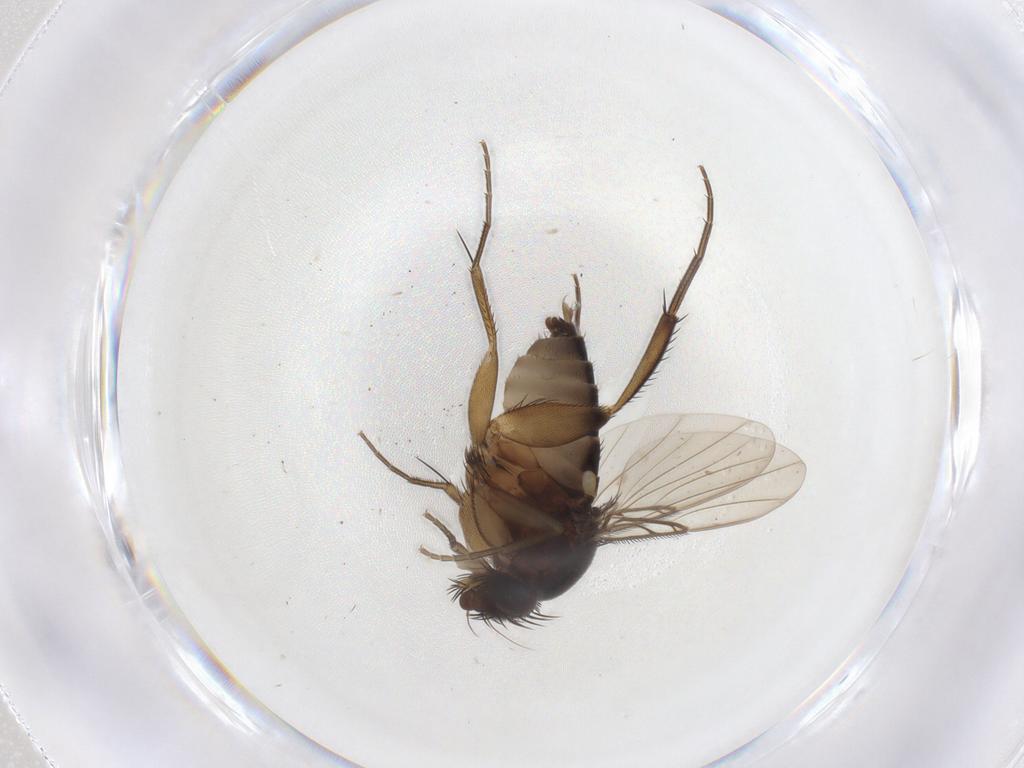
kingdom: Animalia
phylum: Arthropoda
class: Insecta
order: Diptera
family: Phoridae
